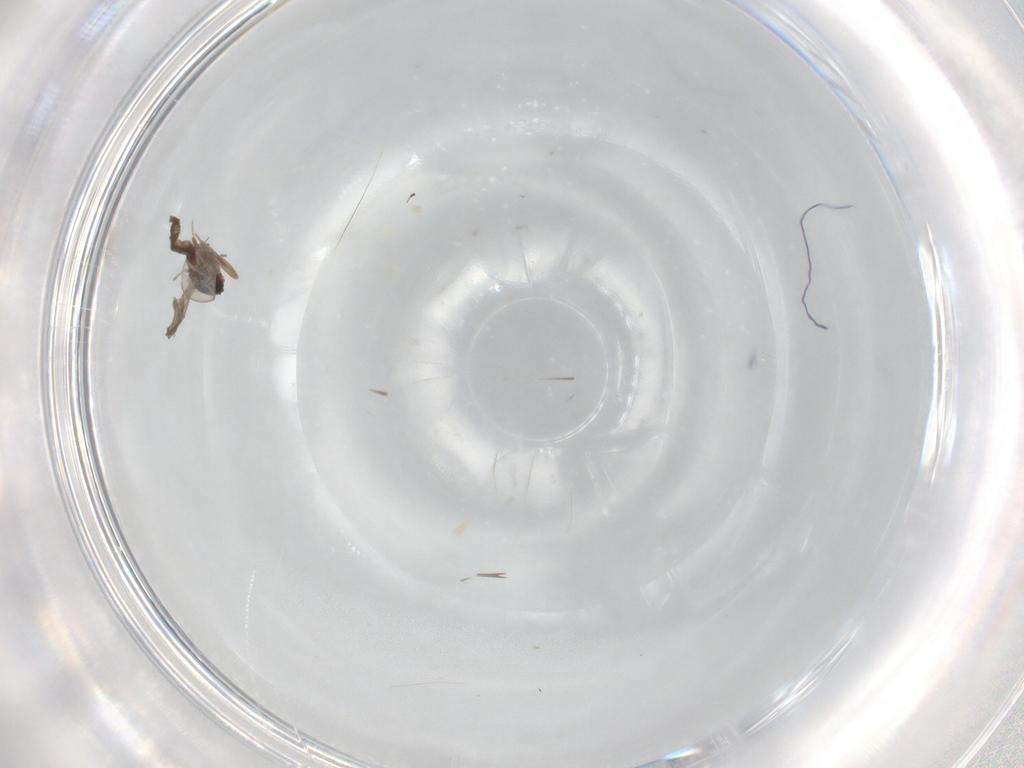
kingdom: Animalia
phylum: Arthropoda
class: Insecta
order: Diptera
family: Cecidomyiidae
